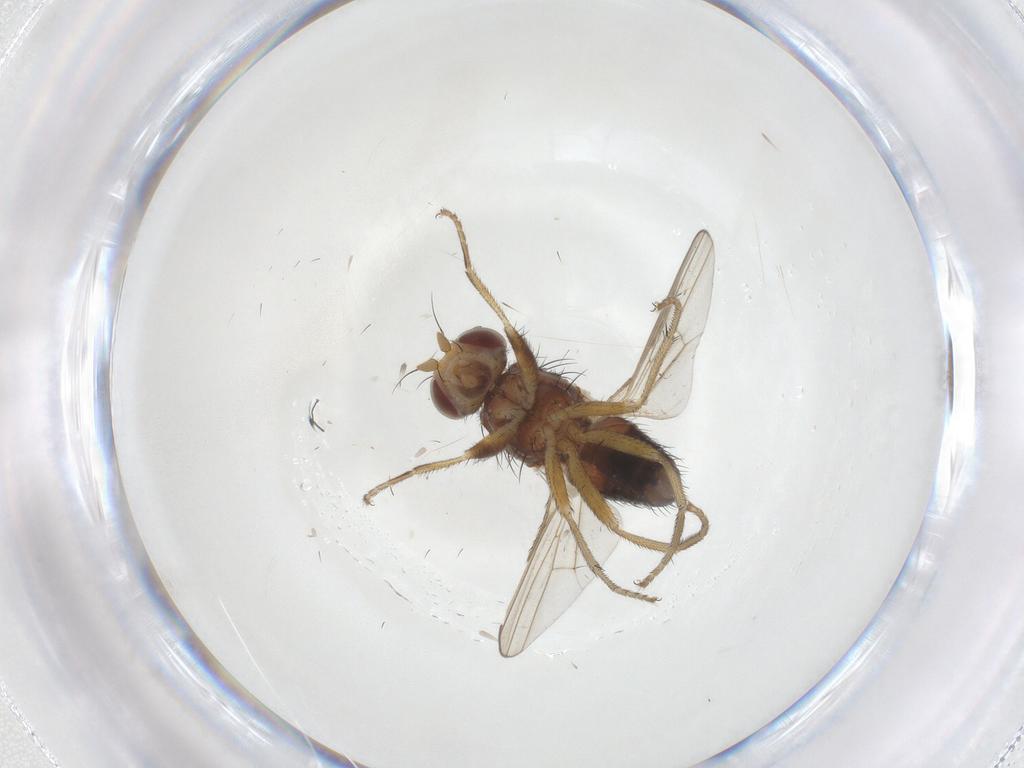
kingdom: Animalia
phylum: Arthropoda
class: Insecta
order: Diptera
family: Heleomyzidae
